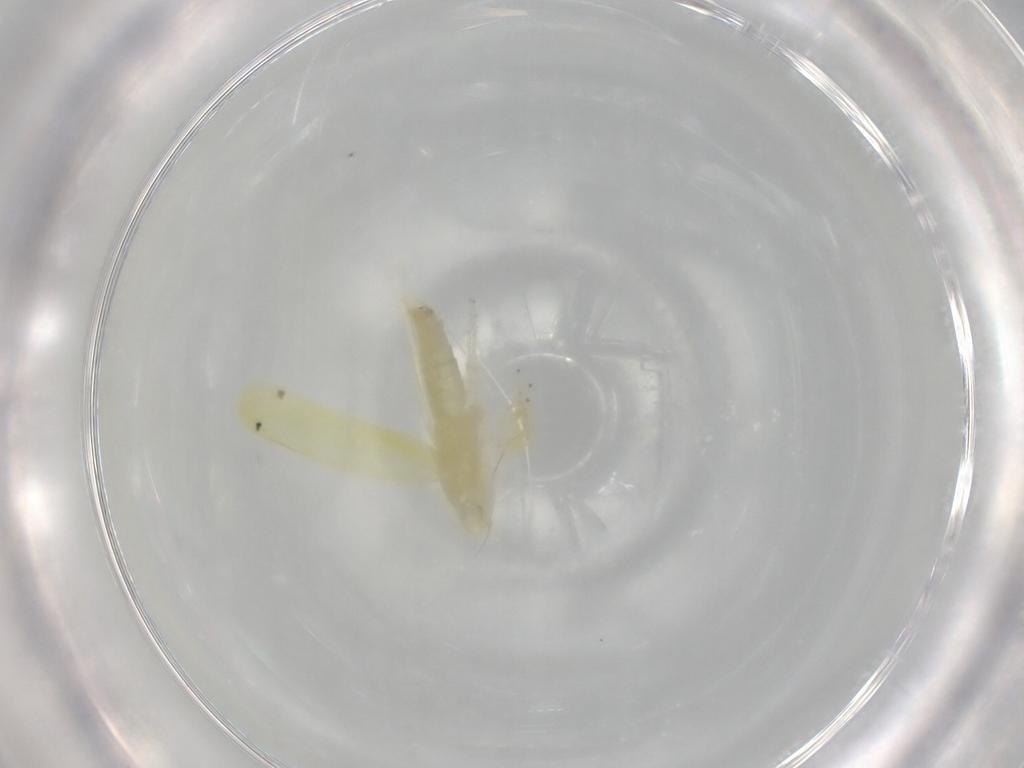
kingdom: Animalia
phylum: Arthropoda
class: Insecta
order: Hemiptera
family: Cicadellidae
